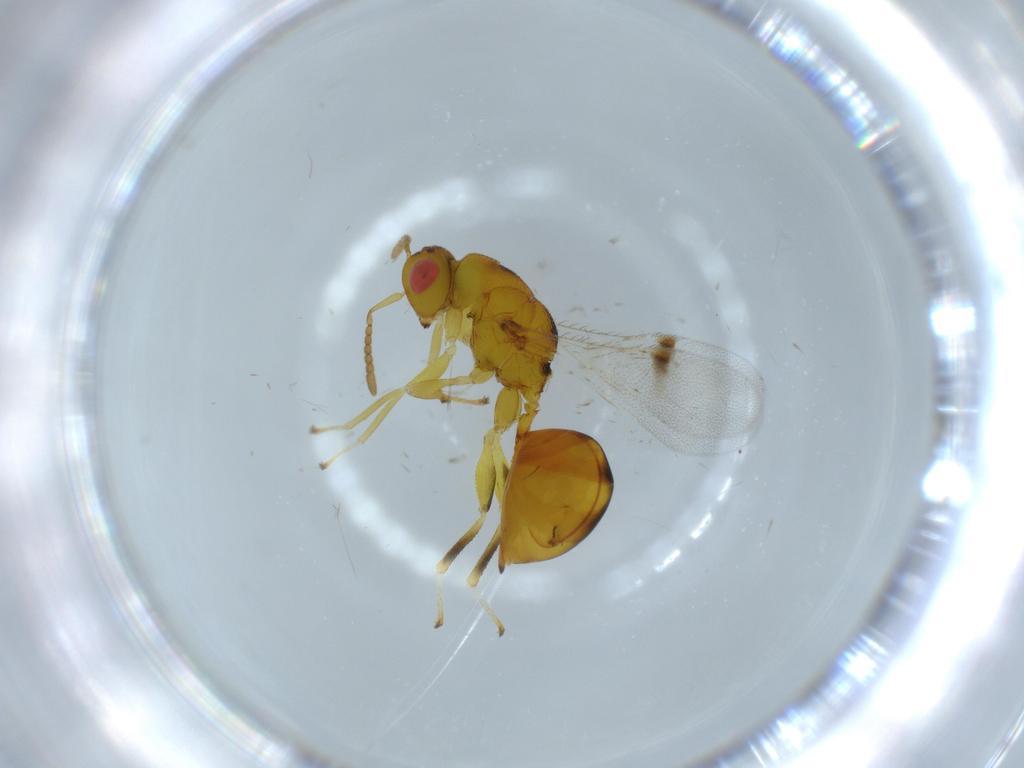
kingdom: Animalia
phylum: Arthropoda
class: Insecta
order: Hymenoptera
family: Eurytomidae
